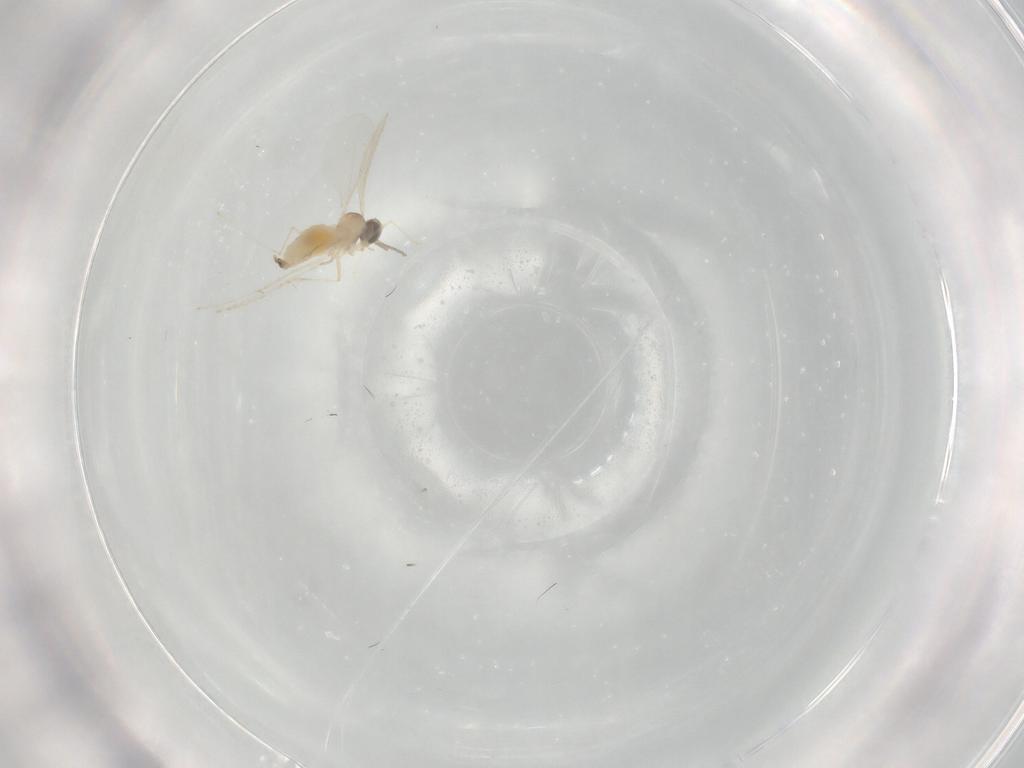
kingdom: Animalia
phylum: Arthropoda
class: Insecta
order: Diptera
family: Cecidomyiidae
